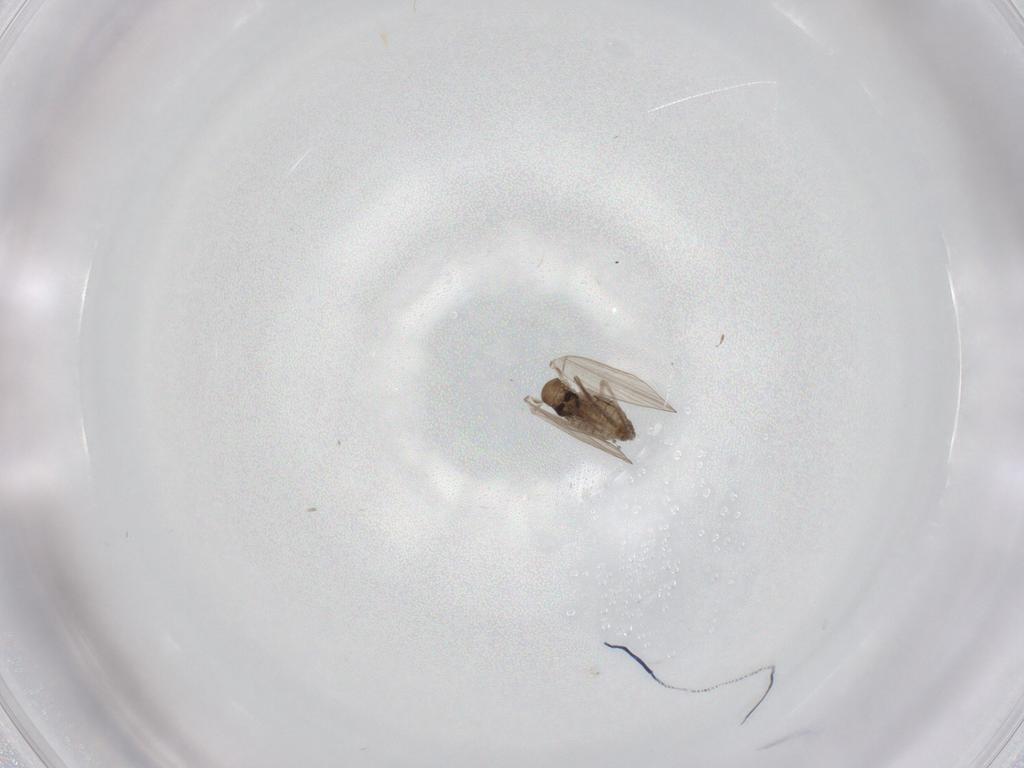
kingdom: Animalia
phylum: Arthropoda
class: Insecta
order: Diptera
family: Psychodidae
